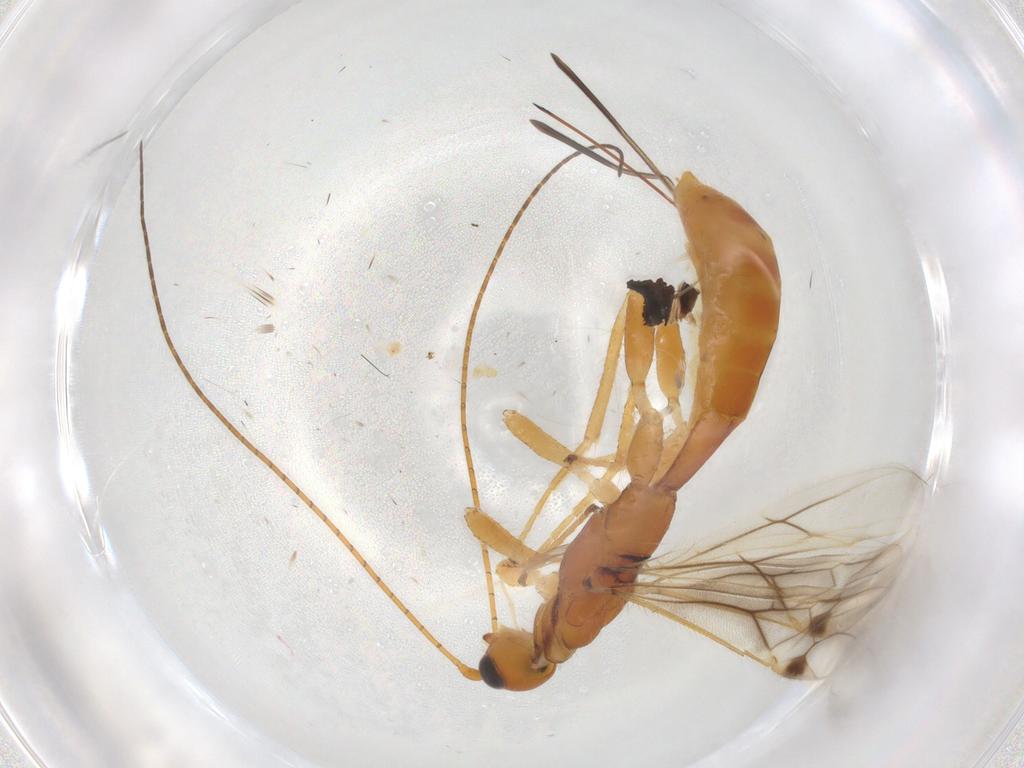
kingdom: Animalia
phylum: Arthropoda
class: Insecta
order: Hymenoptera
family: Braconidae
